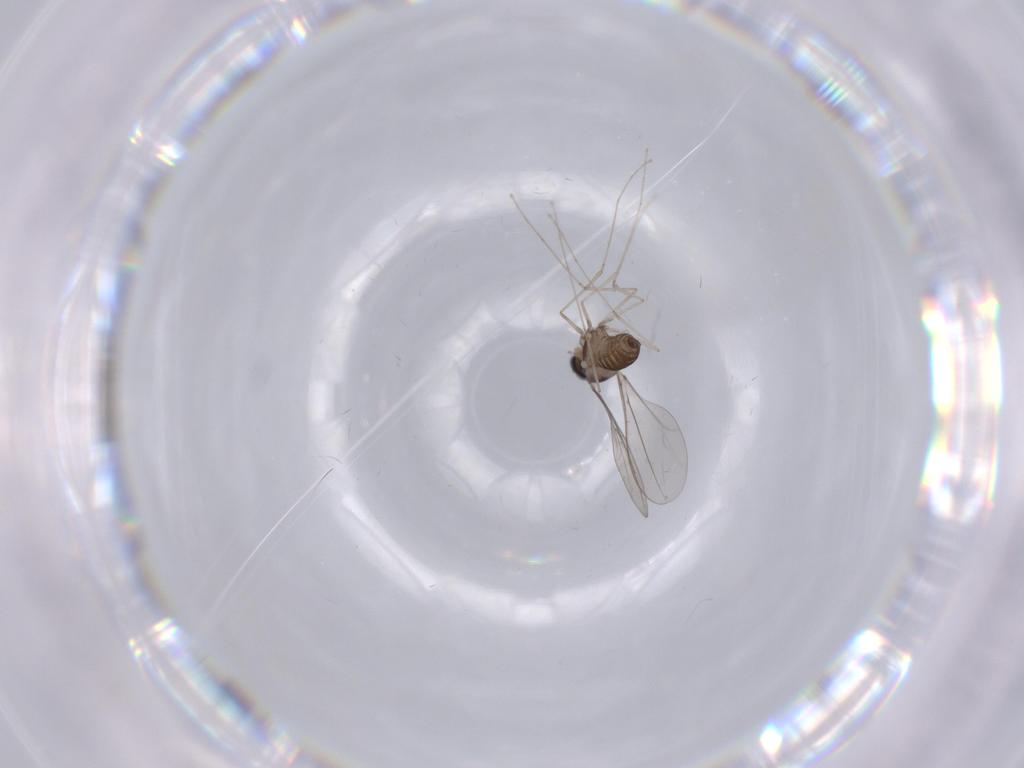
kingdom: Animalia
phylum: Arthropoda
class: Insecta
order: Diptera
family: Cecidomyiidae
